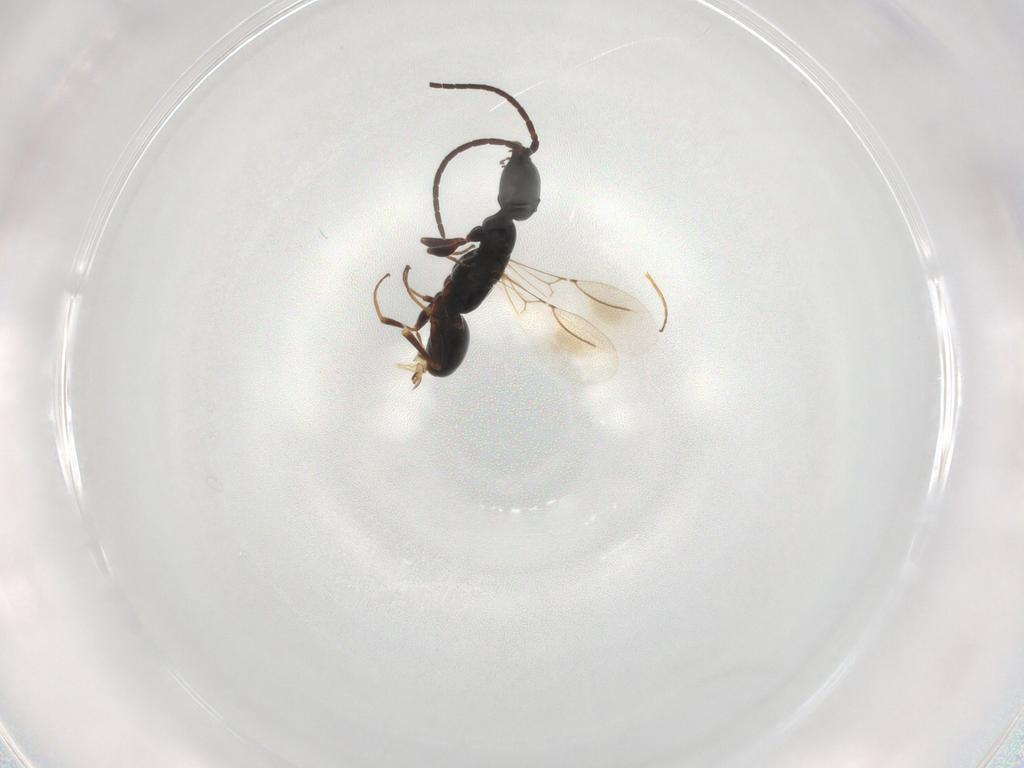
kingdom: Animalia
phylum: Arthropoda
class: Insecta
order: Hymenoptera
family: Bethylidae
